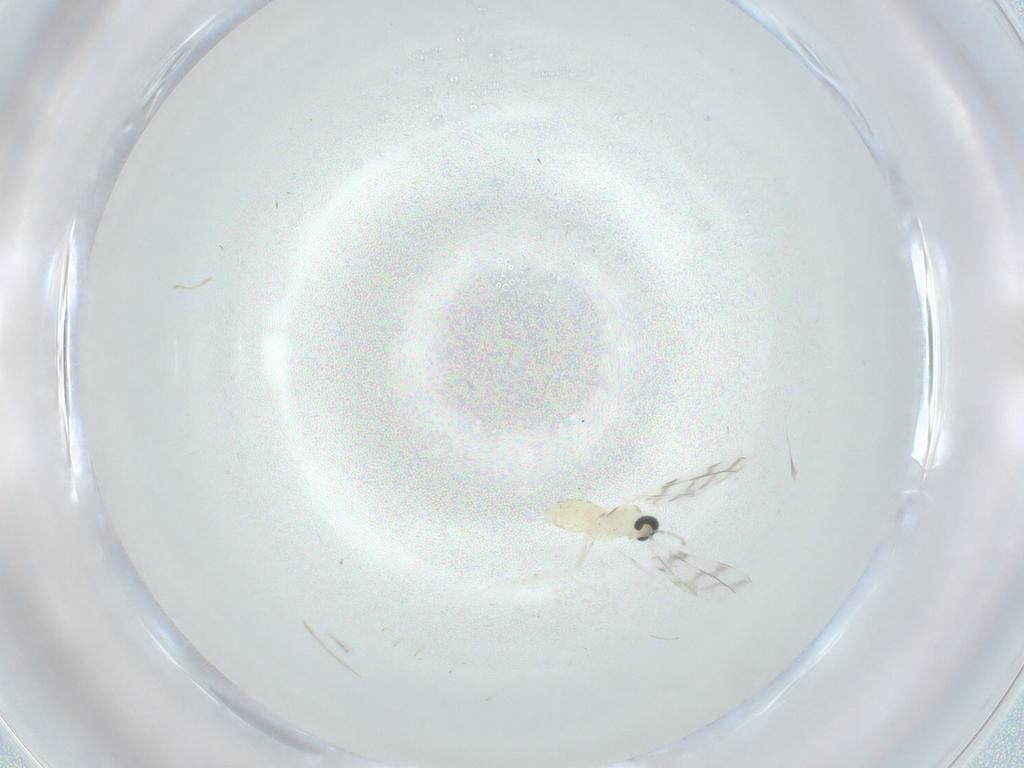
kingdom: Animalia
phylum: Arthropoda
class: Insecta
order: Diptera
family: Cecidomyiidae
